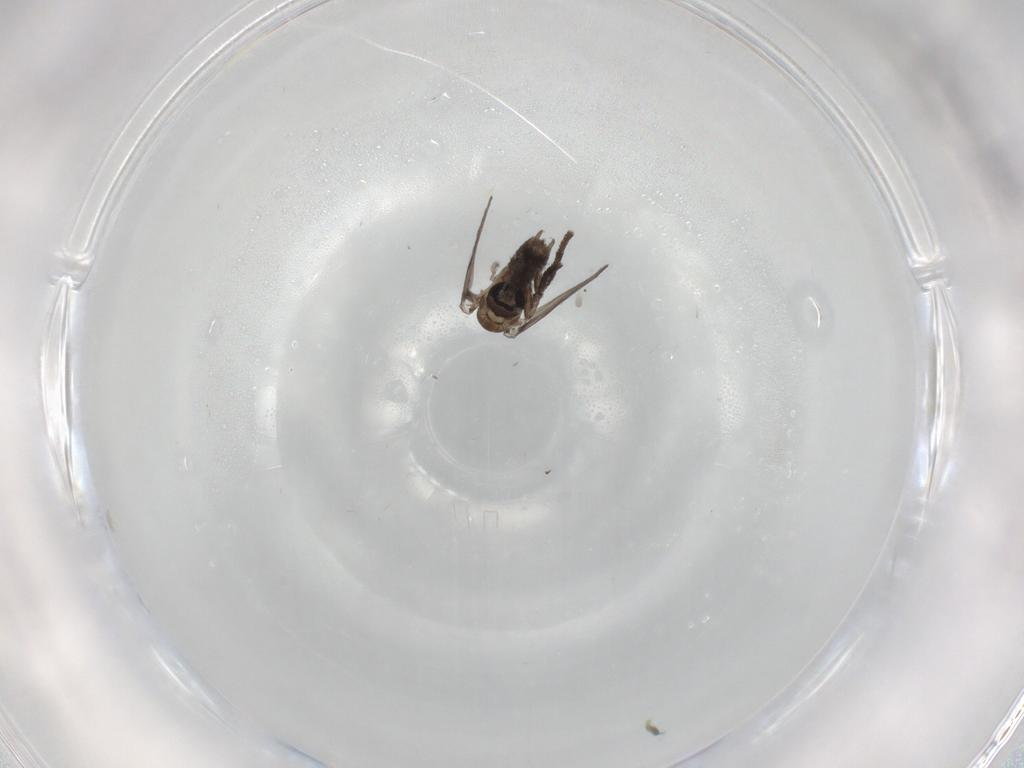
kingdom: Animalia
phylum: Arthropoda
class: Insecta
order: Diptera
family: Psychodidae
